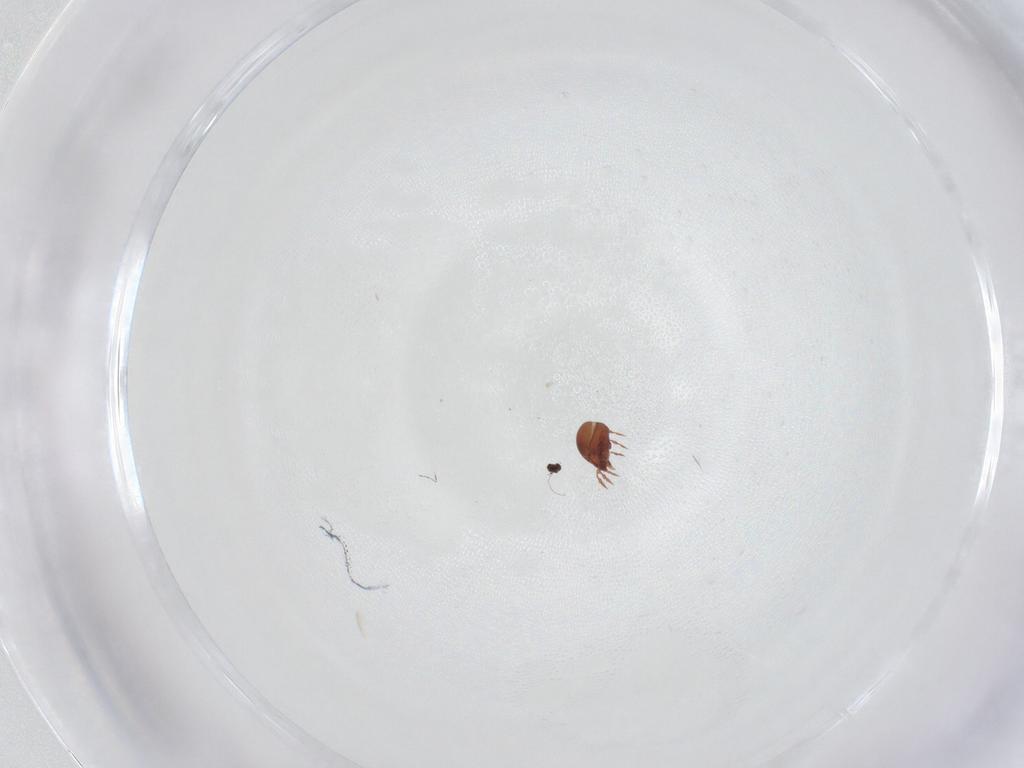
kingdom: Animalia
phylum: Arthropoda
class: Arachnida
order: Sarcoptiformes
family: Peloppiidae
